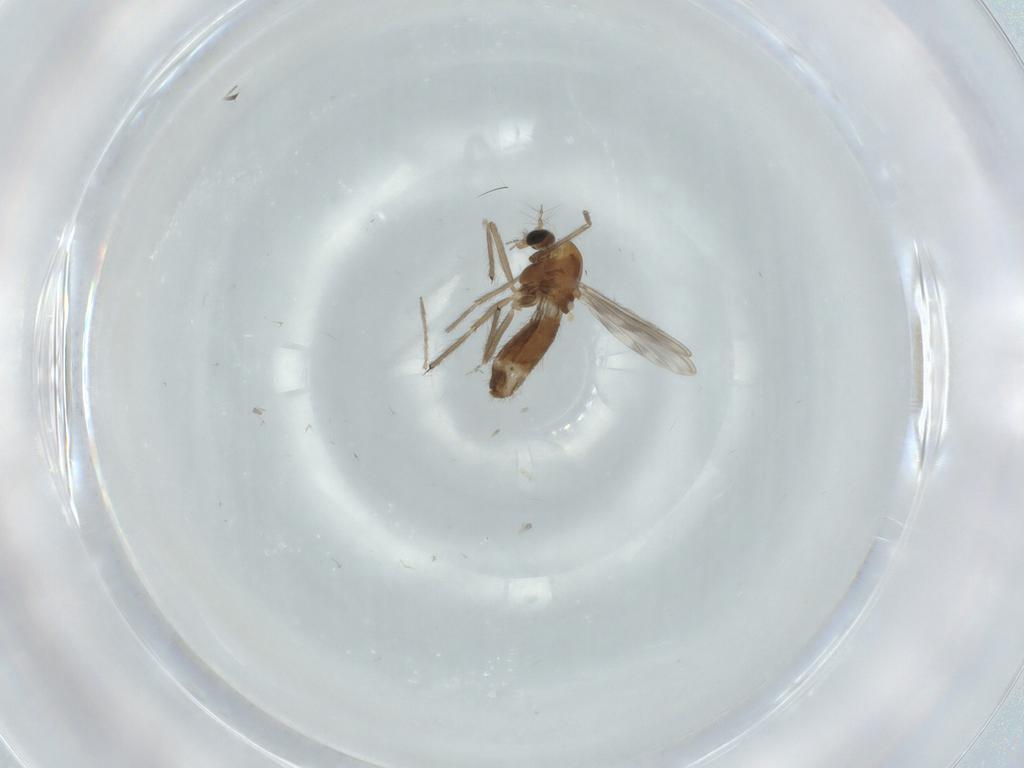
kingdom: Animalia
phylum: Arthropoda
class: Insecta
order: Diptera
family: Chironomidae
